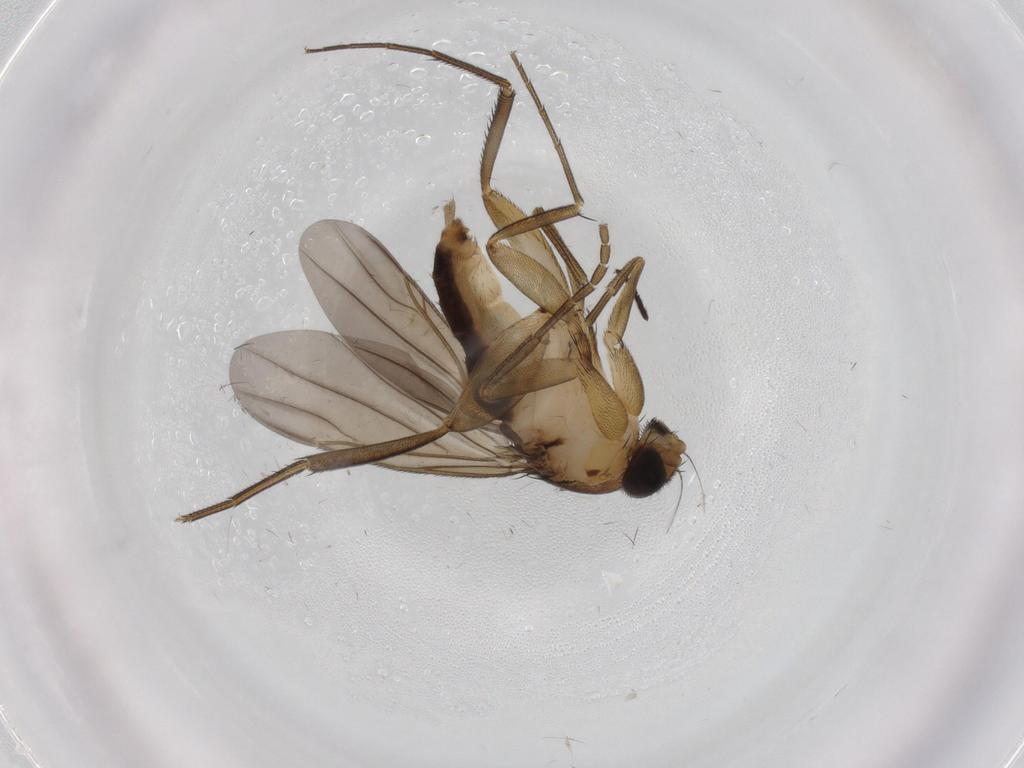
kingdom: Animalia
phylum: Arthropoda
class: Insecta
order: Diptera
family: Phoridae
